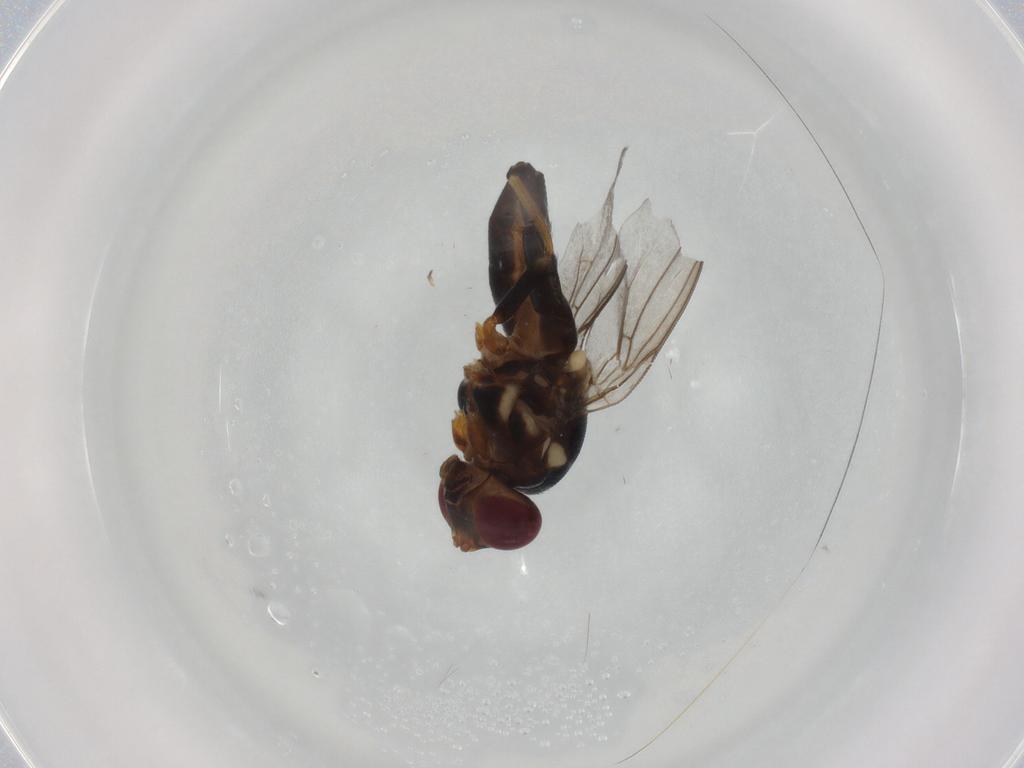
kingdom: Animalia
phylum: Arthropoda
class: Insecta
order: Diptera
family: Chloropidae
